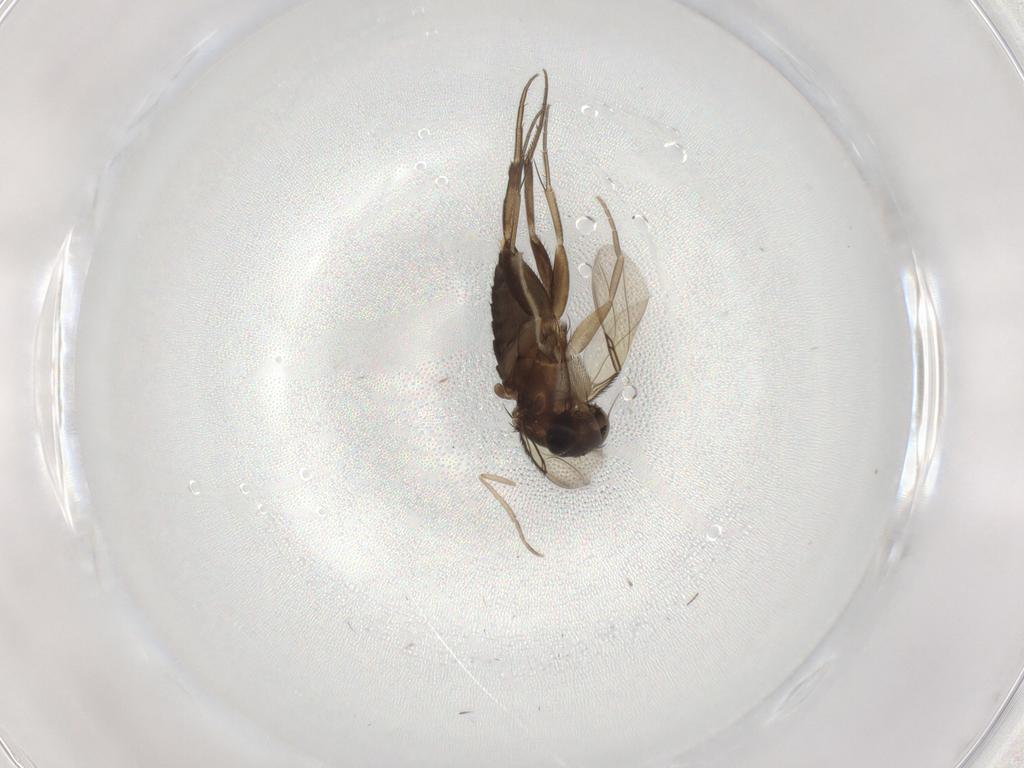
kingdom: Animalia
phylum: Arthropoda
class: Insecta
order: Diptera
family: Phoridae
